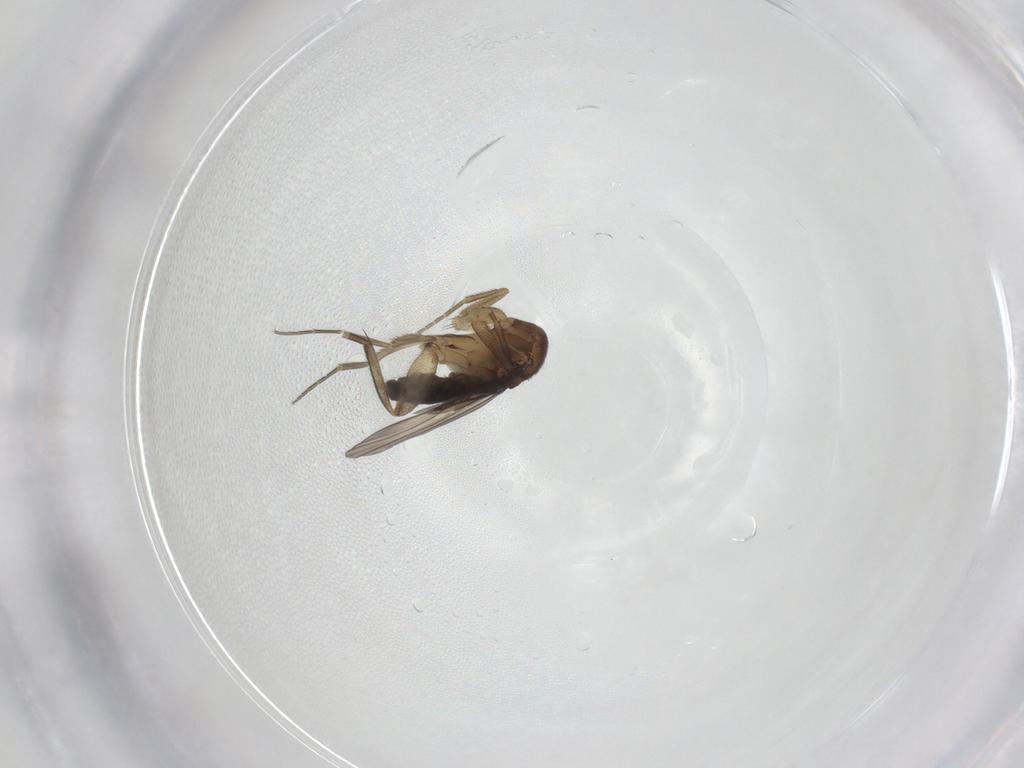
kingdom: Animalia
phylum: Arthropoda
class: Insecta
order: Diptera
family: Phoridae
